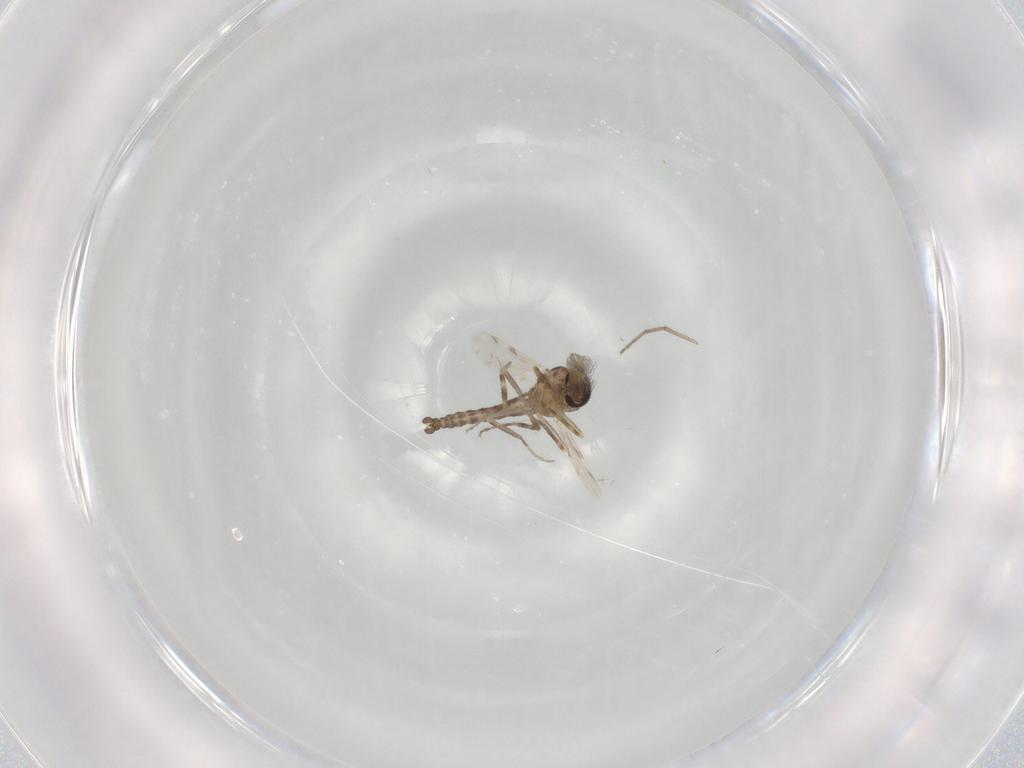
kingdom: Animalia
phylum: Arthropoda
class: Insecta
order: Diptera
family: Ceratopogonidae
